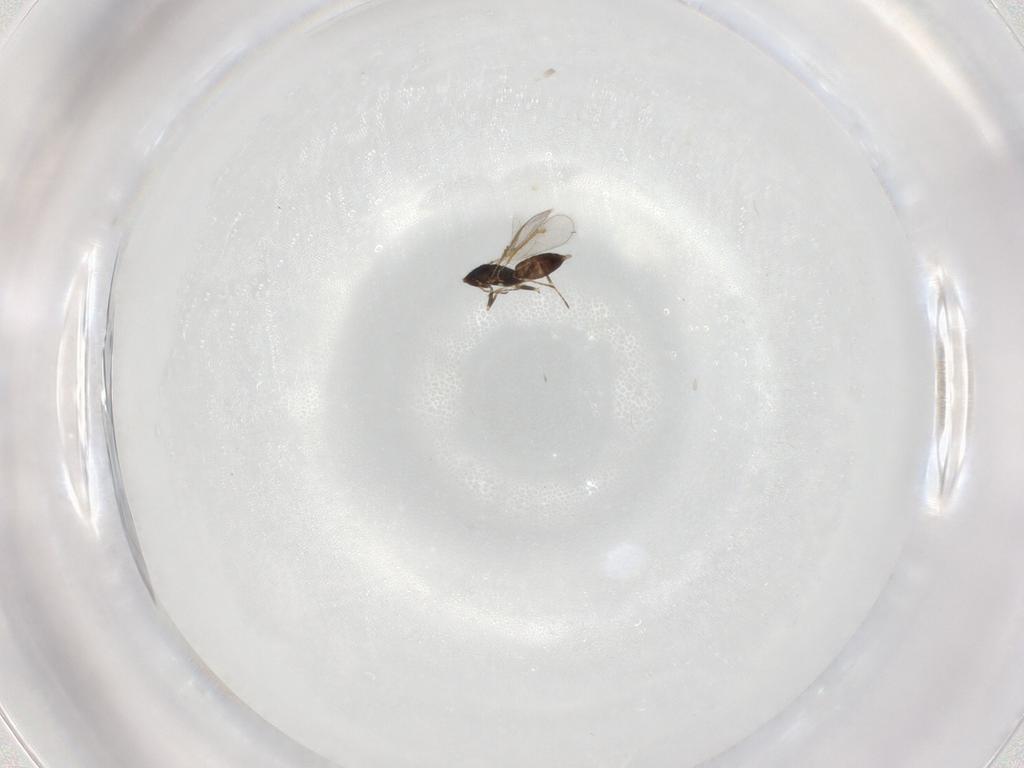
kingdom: Animalia
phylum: Arthropoda
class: Insecta
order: Hymenoptera
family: Eulophidae
